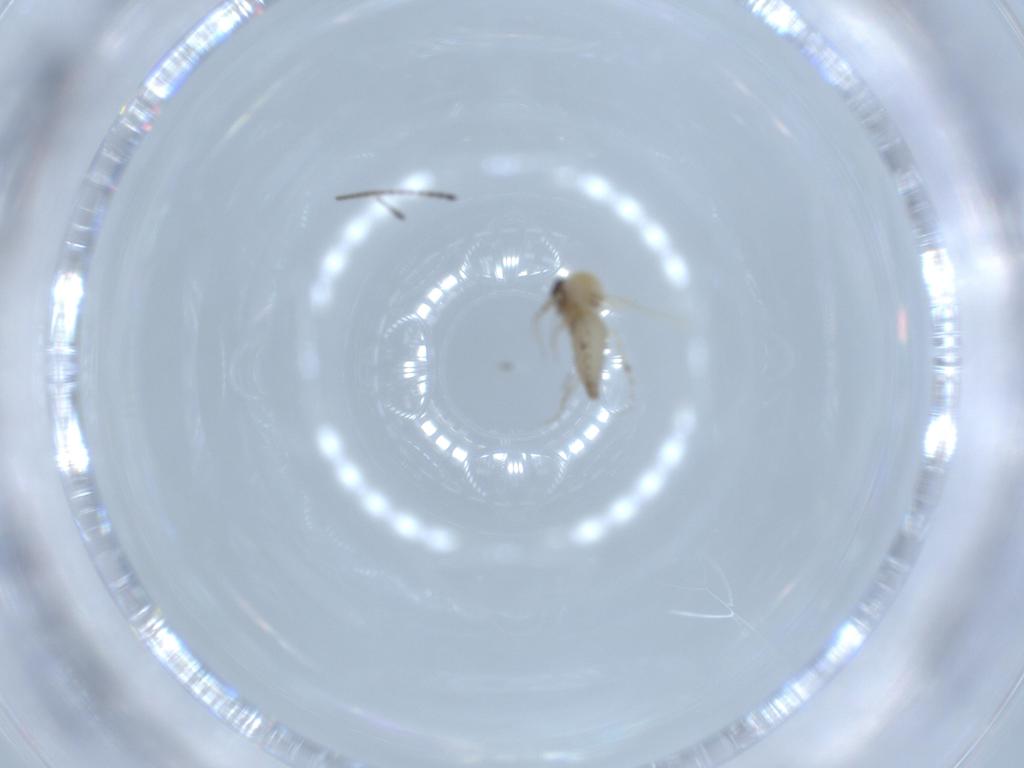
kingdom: Animalia
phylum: Arthropoda
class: Insecta
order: Diptera
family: Ceratopogonidae
